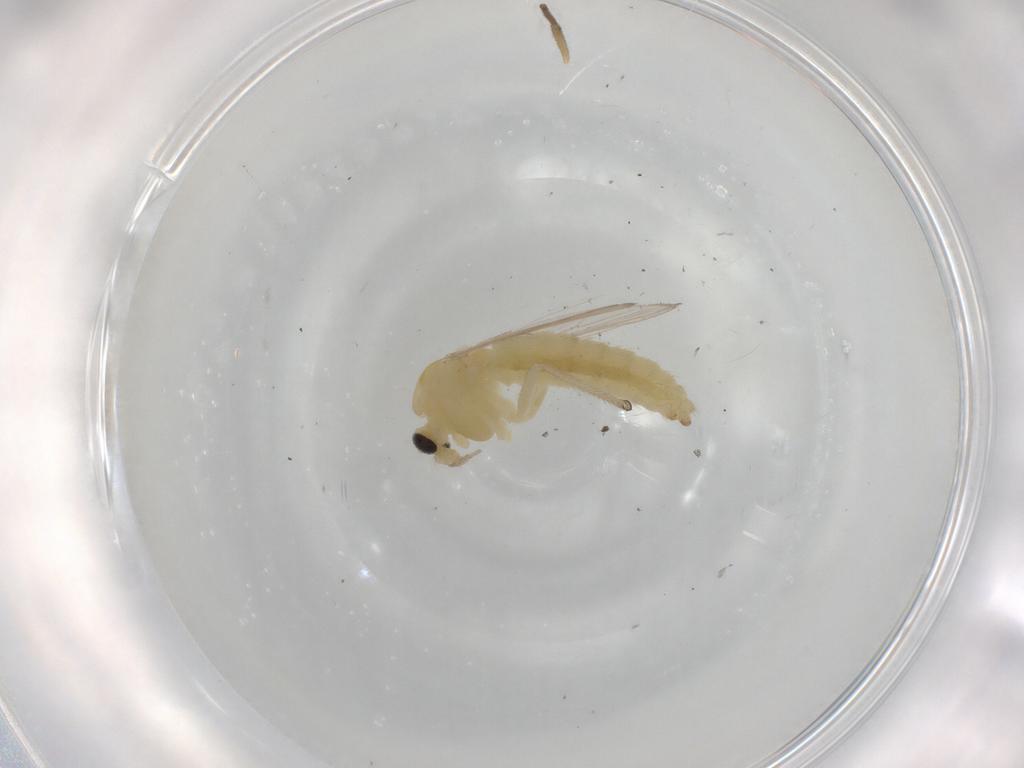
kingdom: Animalia
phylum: Arthropoda
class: Insecta
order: Diptera
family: Chironomidae
